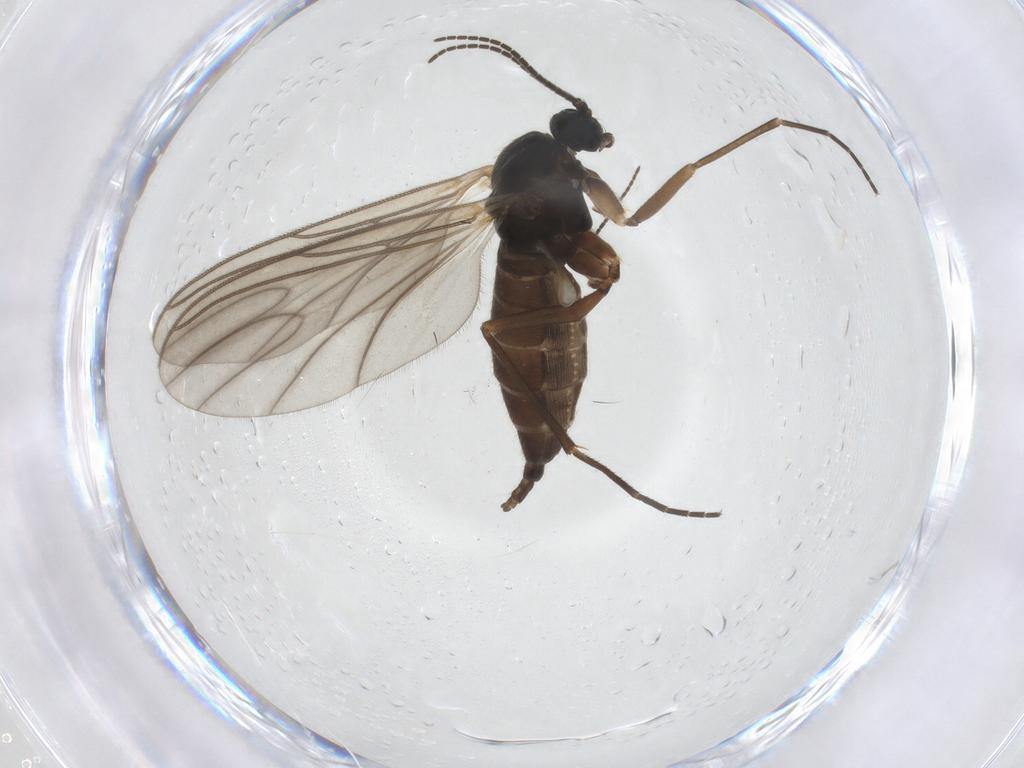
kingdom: Animalia
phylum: Arthropoda
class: Insecta
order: Diptera
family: Sciaridae
